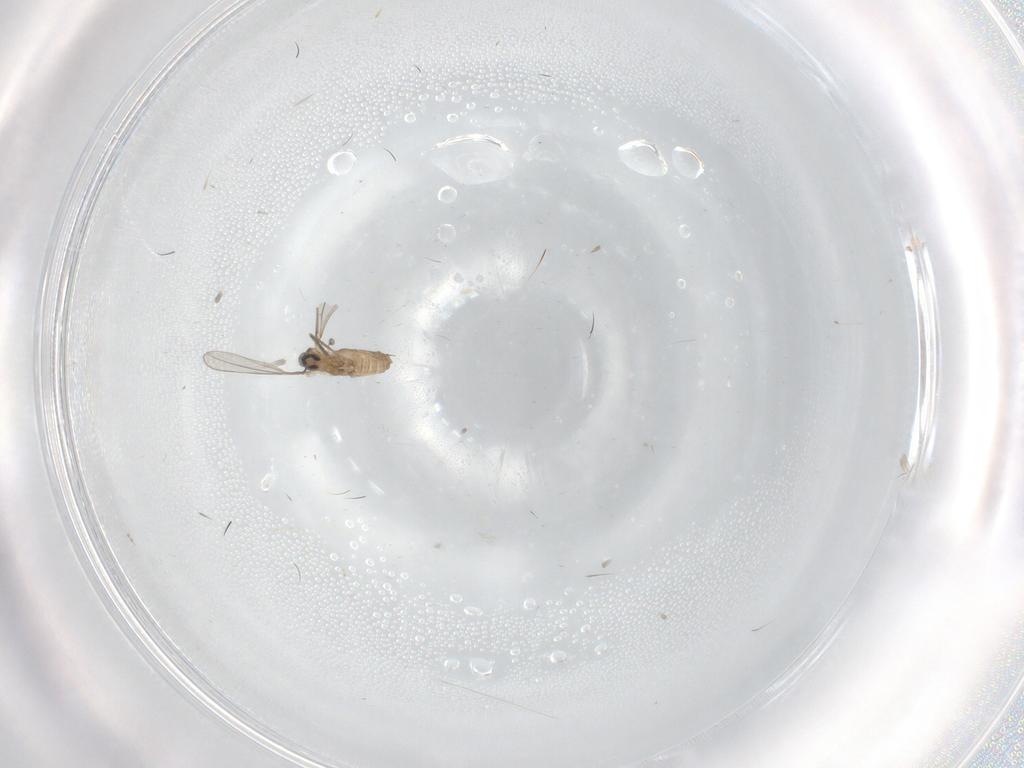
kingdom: Animalia
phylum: Arthropoda
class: Insecta
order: Diptera
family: Cecidomyiidae
